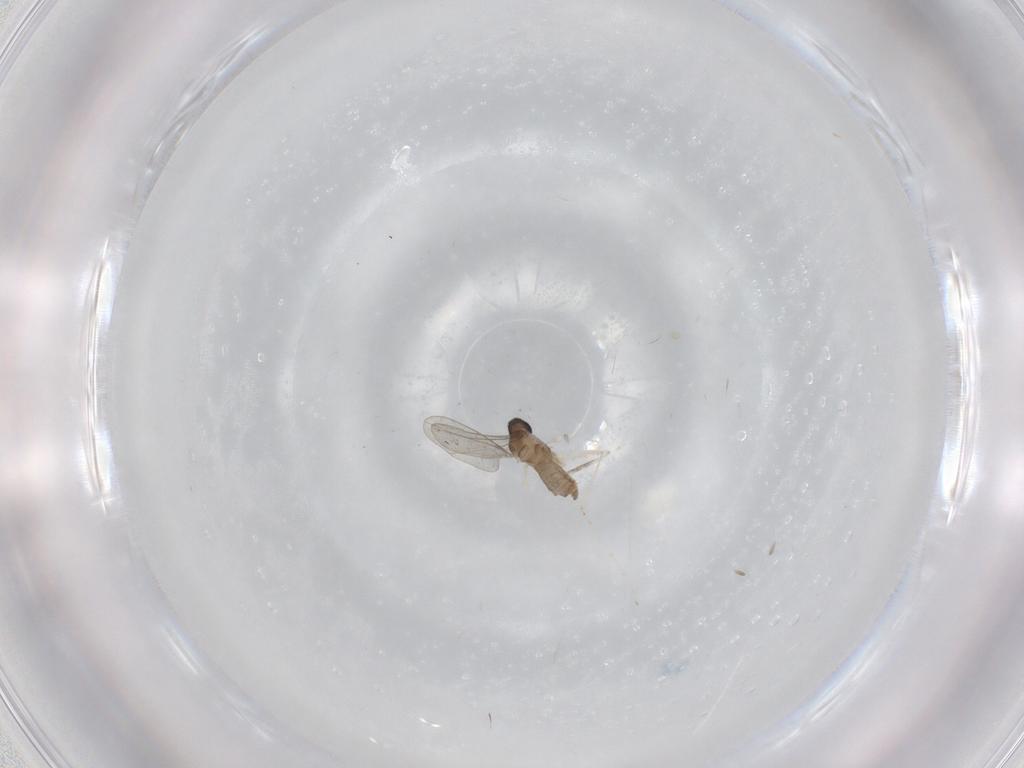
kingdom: Animalia
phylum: Arthropoda
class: Insecta
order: Diptera
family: Cecidomyiidae
